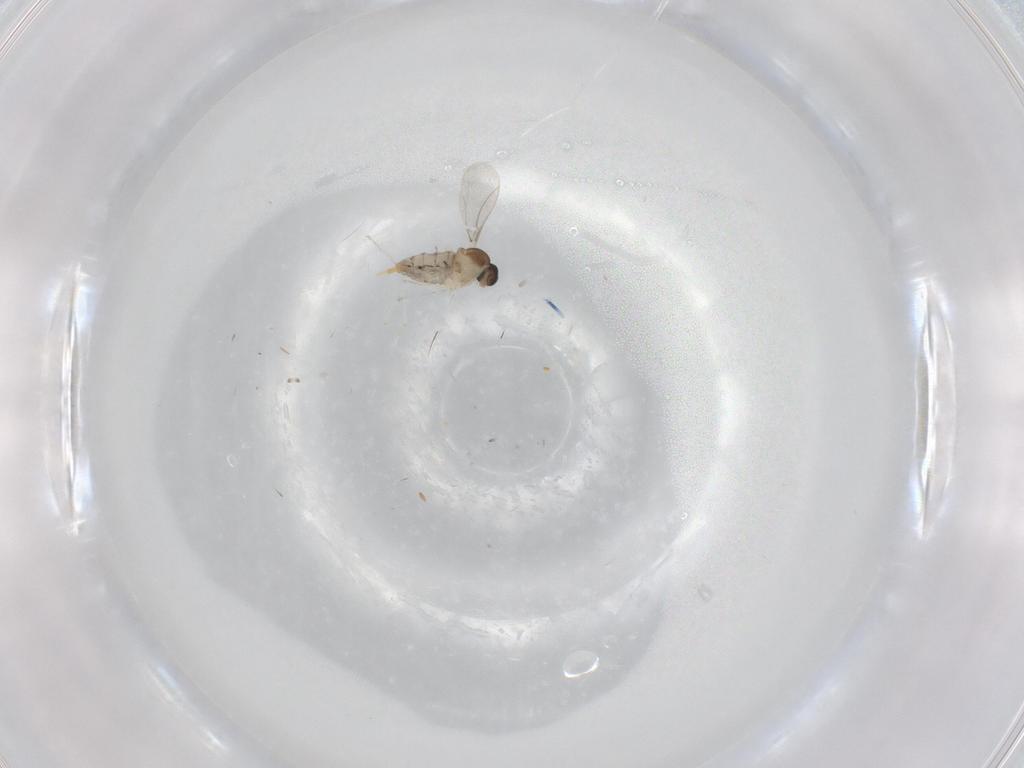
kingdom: Animalia
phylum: Arthropoda
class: Insecta
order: Diptera
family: Cecidomyiidae
